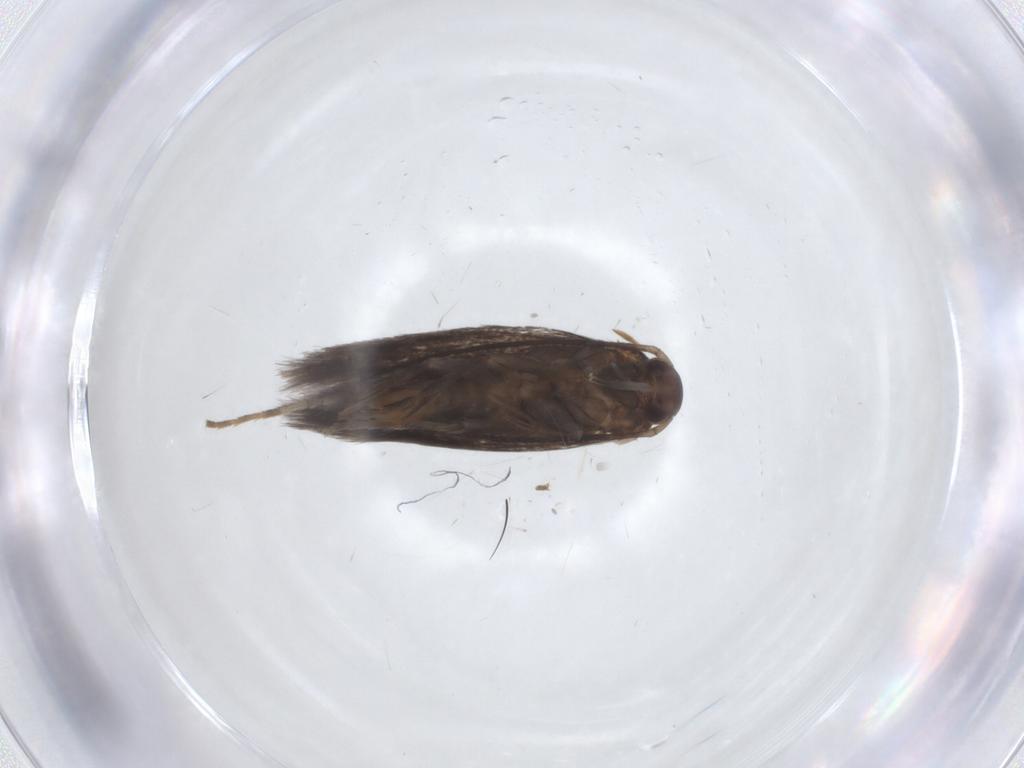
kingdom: Animalia
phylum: Arthropoda
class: Insecta
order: Lepidoptera
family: Elachistidae
